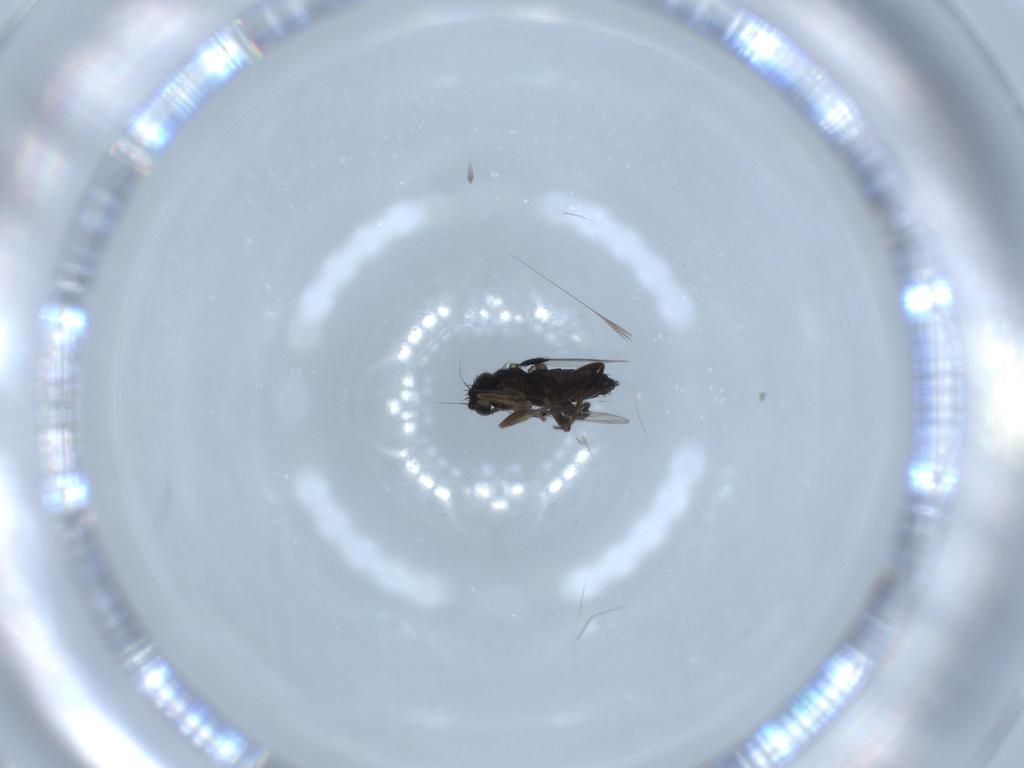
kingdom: Animalia
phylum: Arthropoda
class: Insecta
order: Diptera
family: Phoridae
